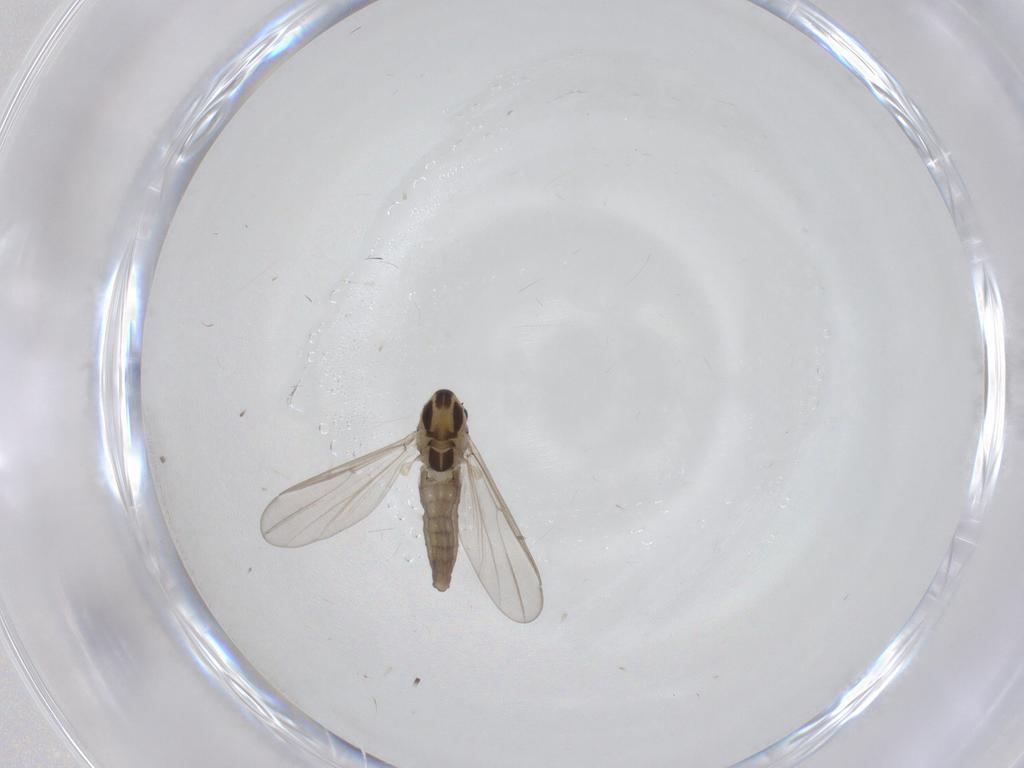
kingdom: Animalia
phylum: Arthropoda
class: Insecta
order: Diptera
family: Chironomidae
